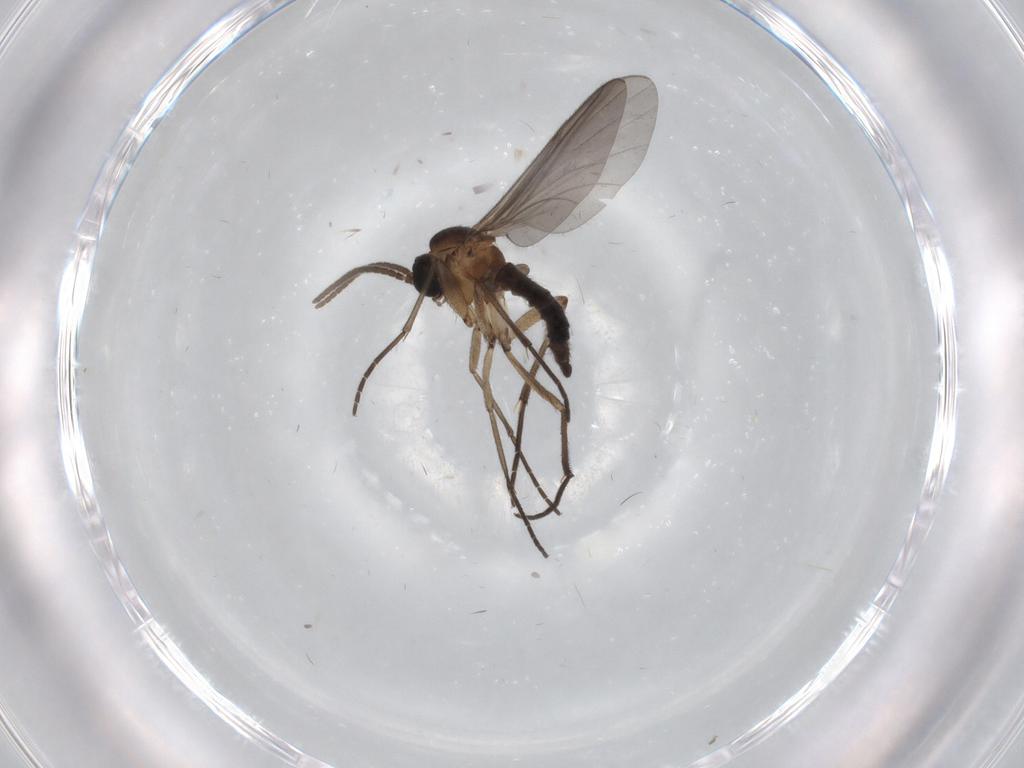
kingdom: Animalia
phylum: Arthropoda
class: Insecta
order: Diptera
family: Micropezidae
